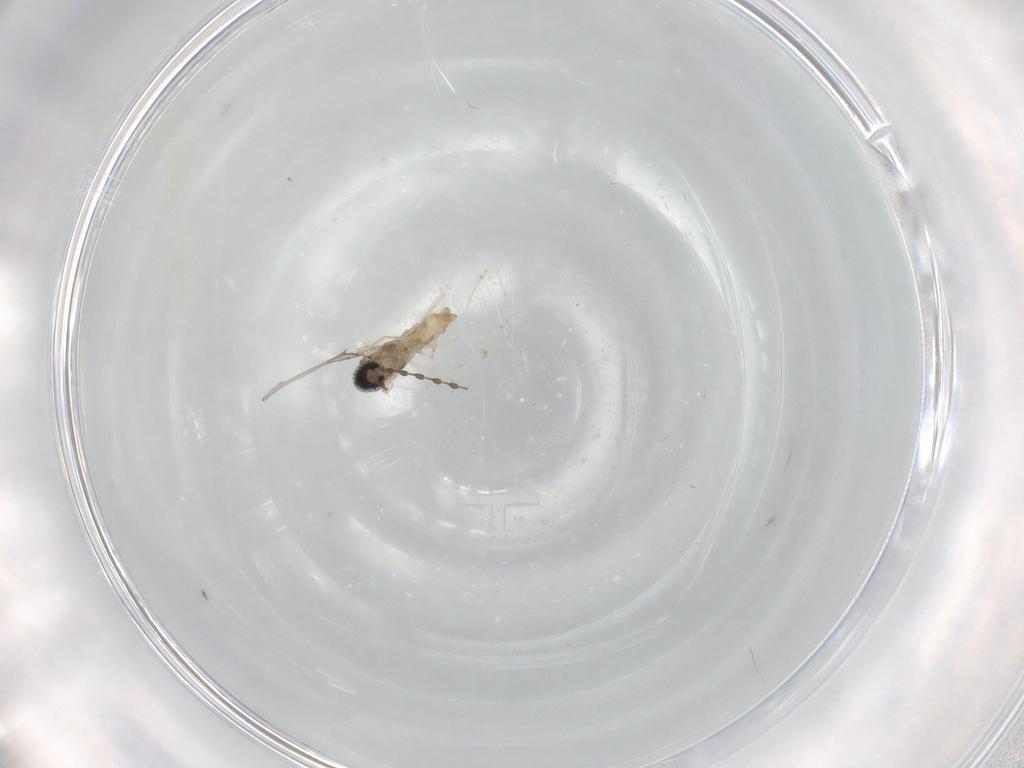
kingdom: Animalia
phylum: Arthropoda
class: Insecta
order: Diptera
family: Cecidomyiidae
